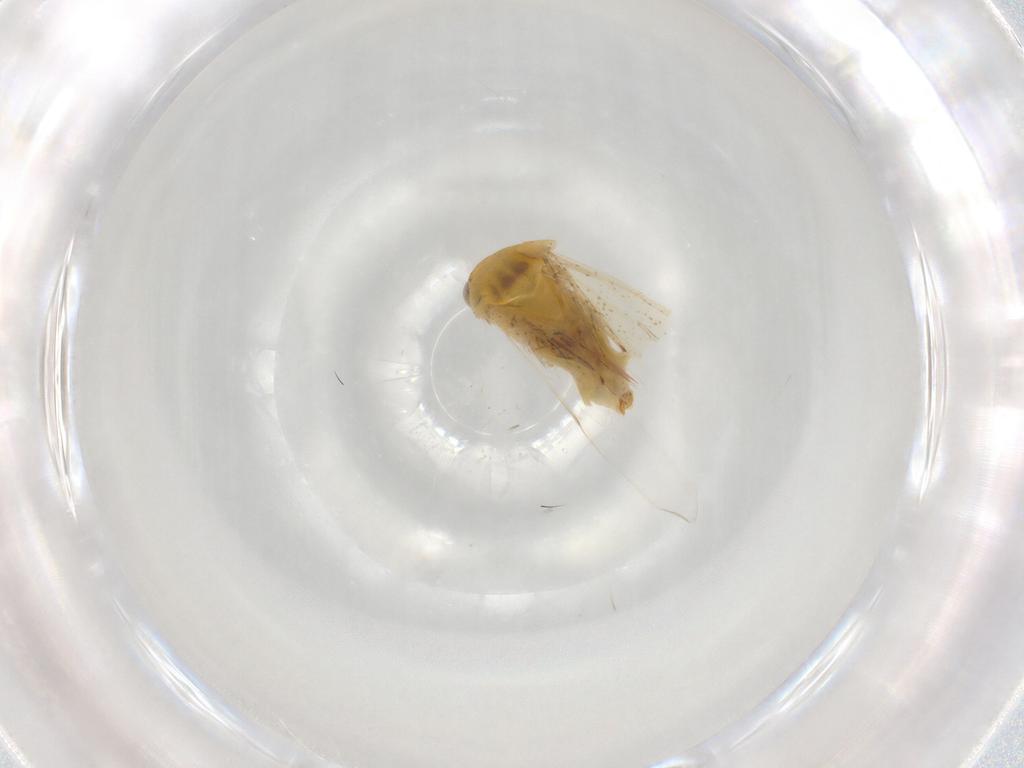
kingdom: Animalia
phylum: Arthropoda
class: Insecta
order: Hemiptera
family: Miridae
